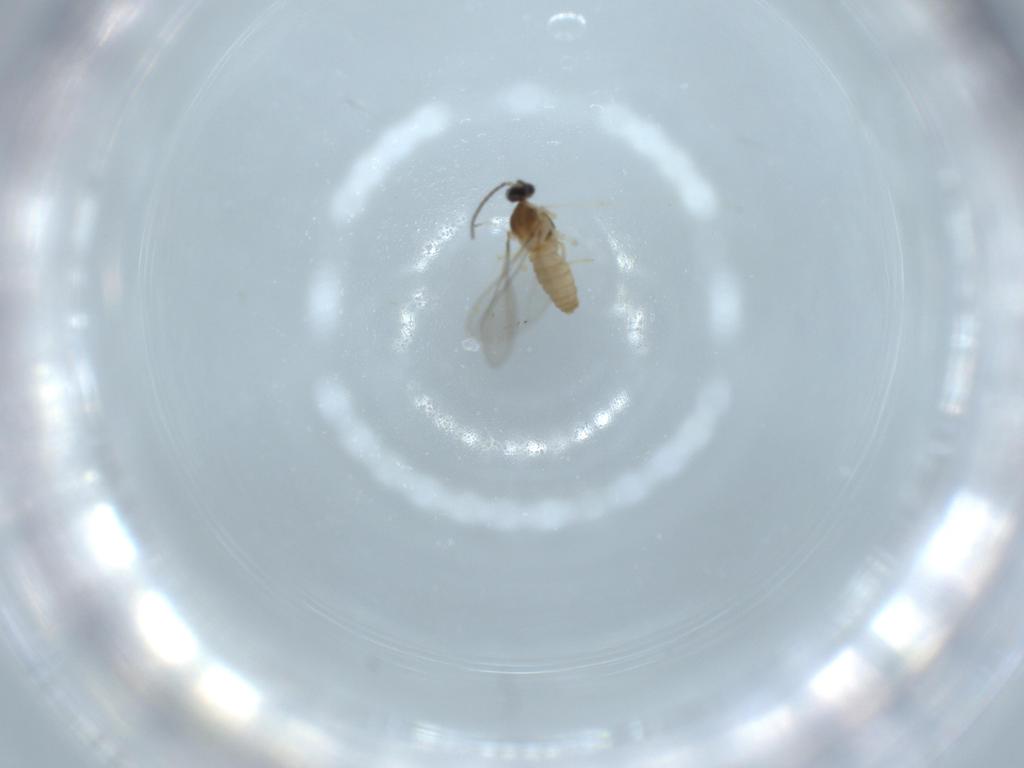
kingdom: Animalia
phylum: Arthropoda
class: Insecta
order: Diptera
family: Cecidomyiidae
